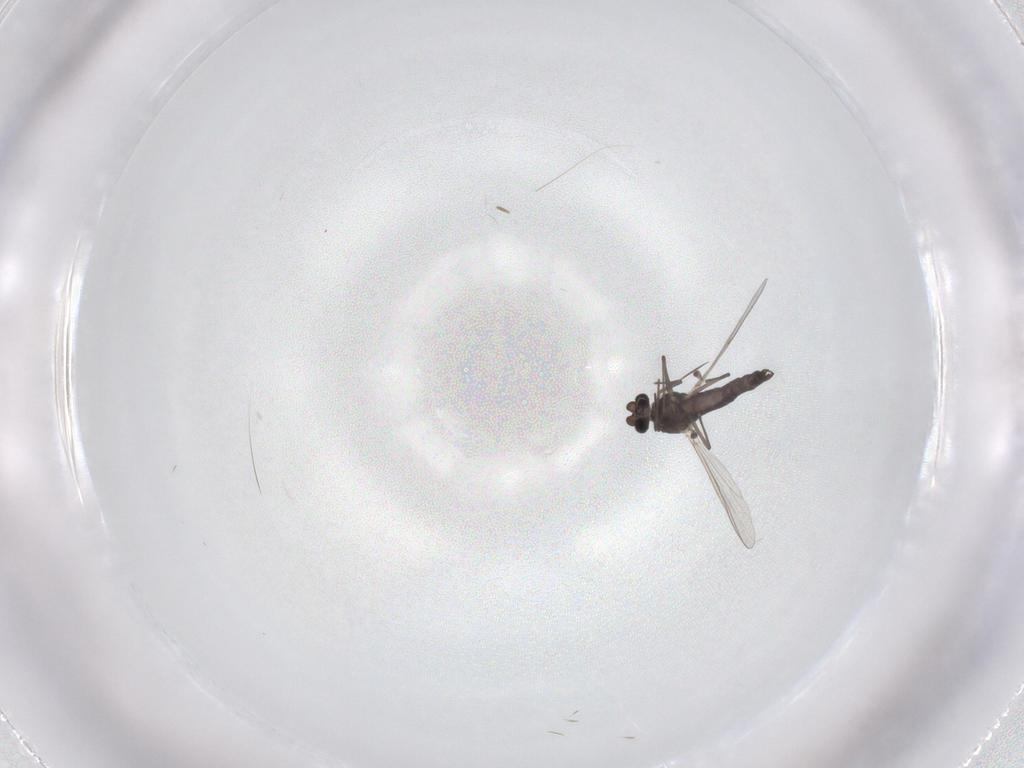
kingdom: Animalia
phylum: Arthropoda
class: Insecta
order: Diptera
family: Chironomidae
